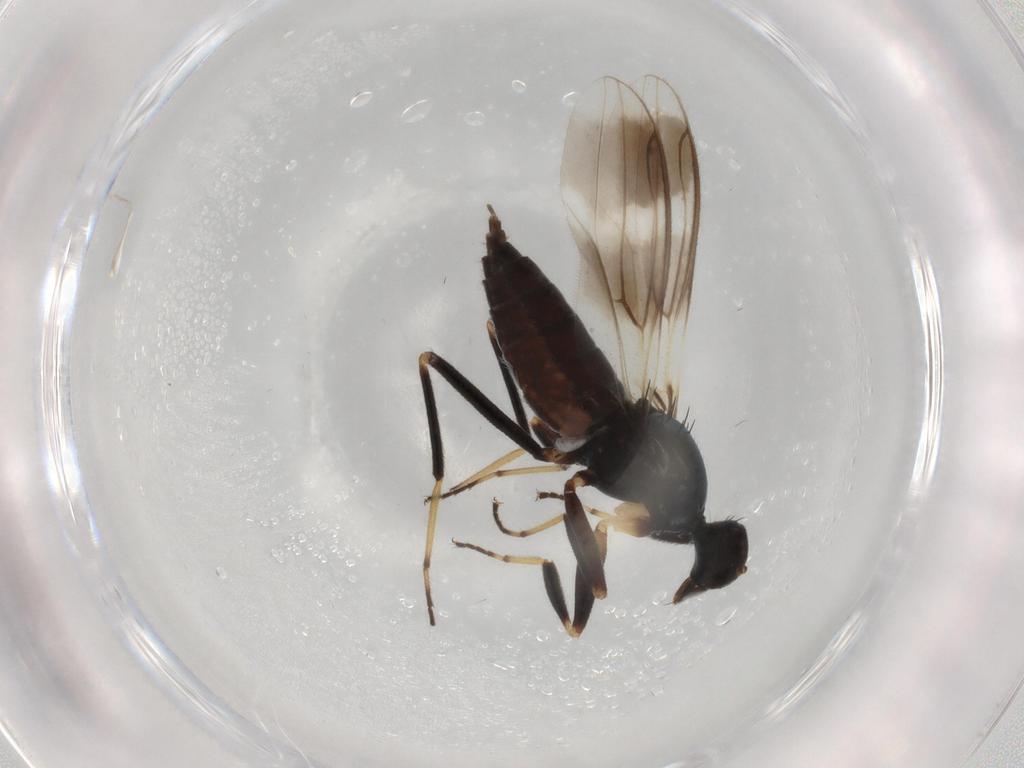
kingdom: Animalia
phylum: Arthropoda
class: Insecta
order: Diptera
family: Hybotidae
